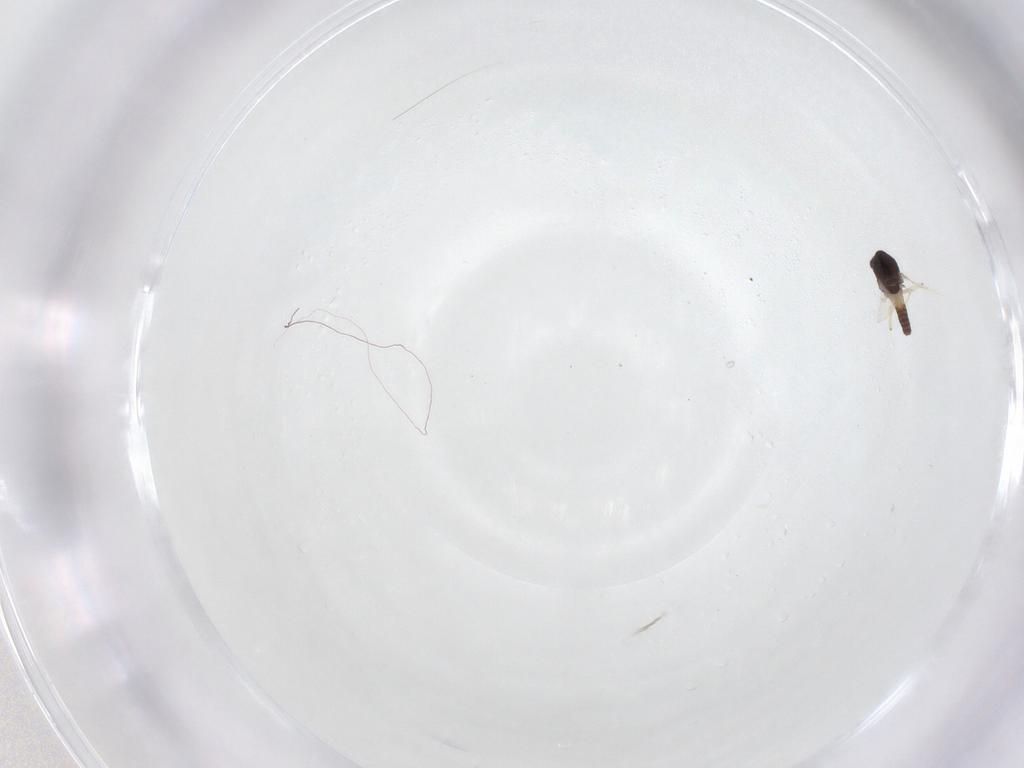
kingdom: Animalia
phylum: Arthropoda
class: Insecta
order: Diptera
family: Chironomidae
